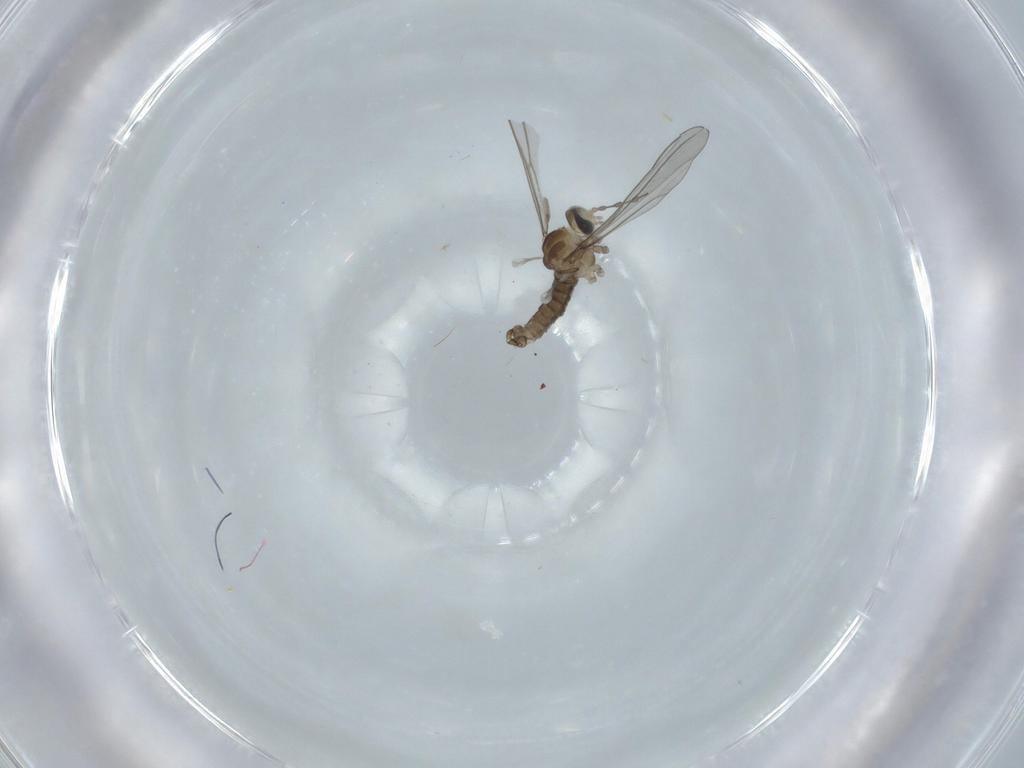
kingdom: Animalia
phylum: Arthropoda
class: Insecta
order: Diptera
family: Cecidomyiidae
